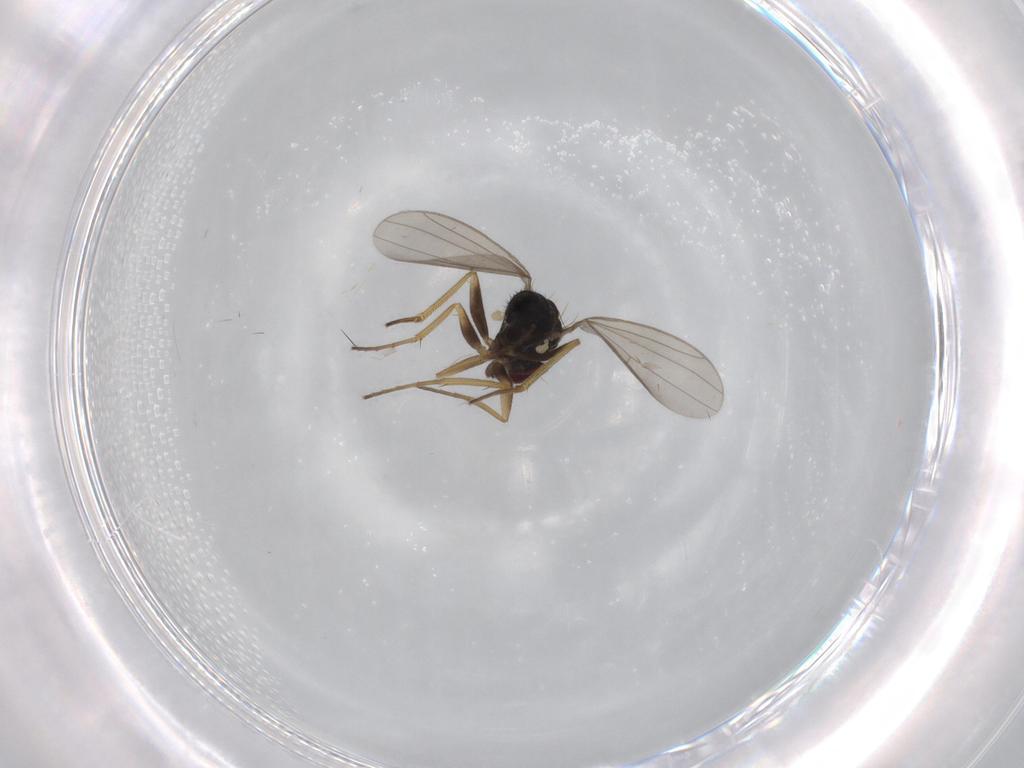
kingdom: Animalia
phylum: Arthropoda
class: Insecta
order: Diptera
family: Dolichopodidae
